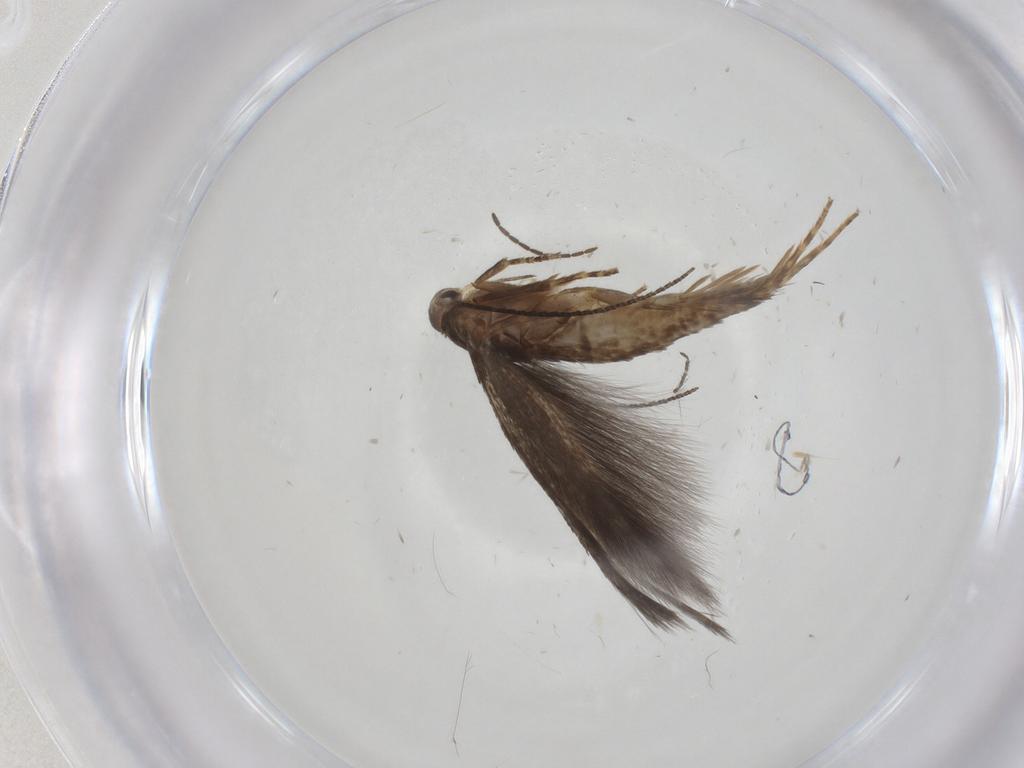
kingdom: Animalia
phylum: Arthropoda
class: Insecta
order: Lepidoptera
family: Elachistidae
